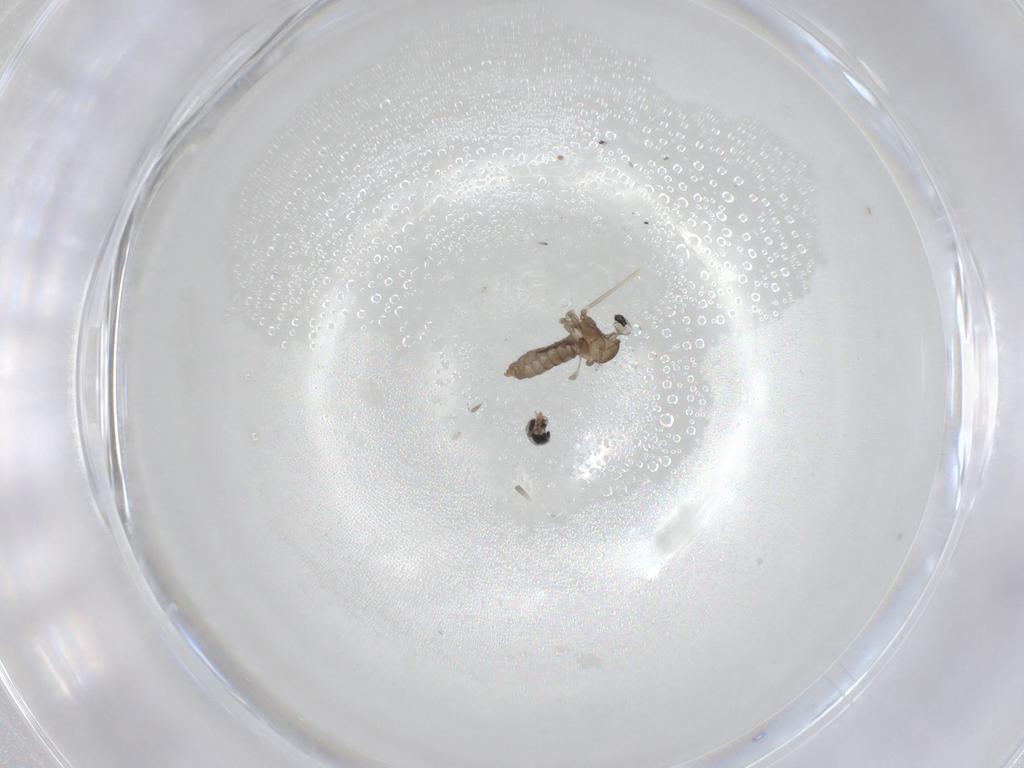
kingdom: Animalia
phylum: Arthropoda
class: Insecta
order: Diptera
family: Cecidomyiidae
